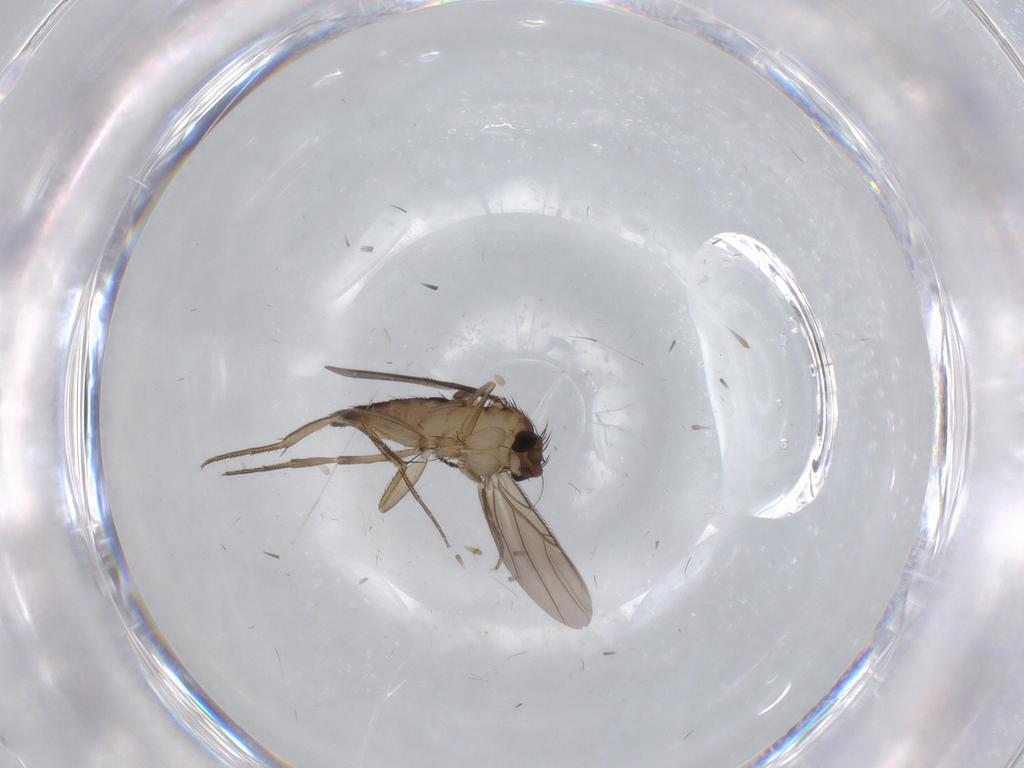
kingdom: Animalia
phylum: Arthropoda
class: Insecta
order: Diptera
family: Phoridae
